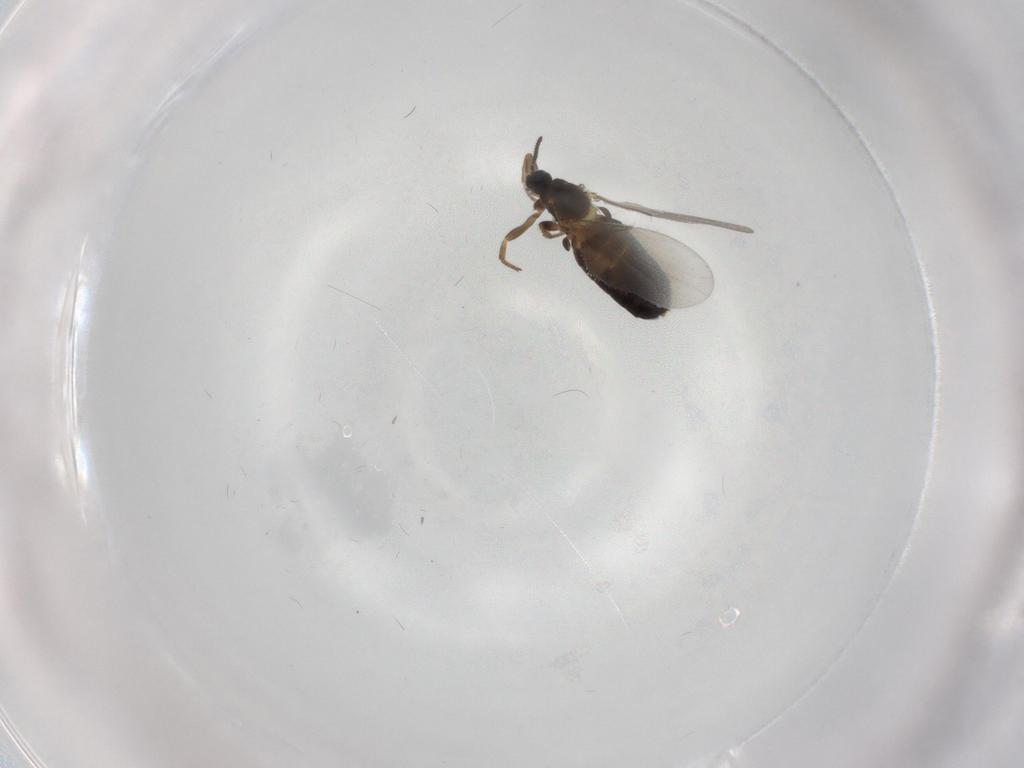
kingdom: Animalia
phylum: Arthropoda
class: Insecta
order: Diptera
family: Scatopsidae
